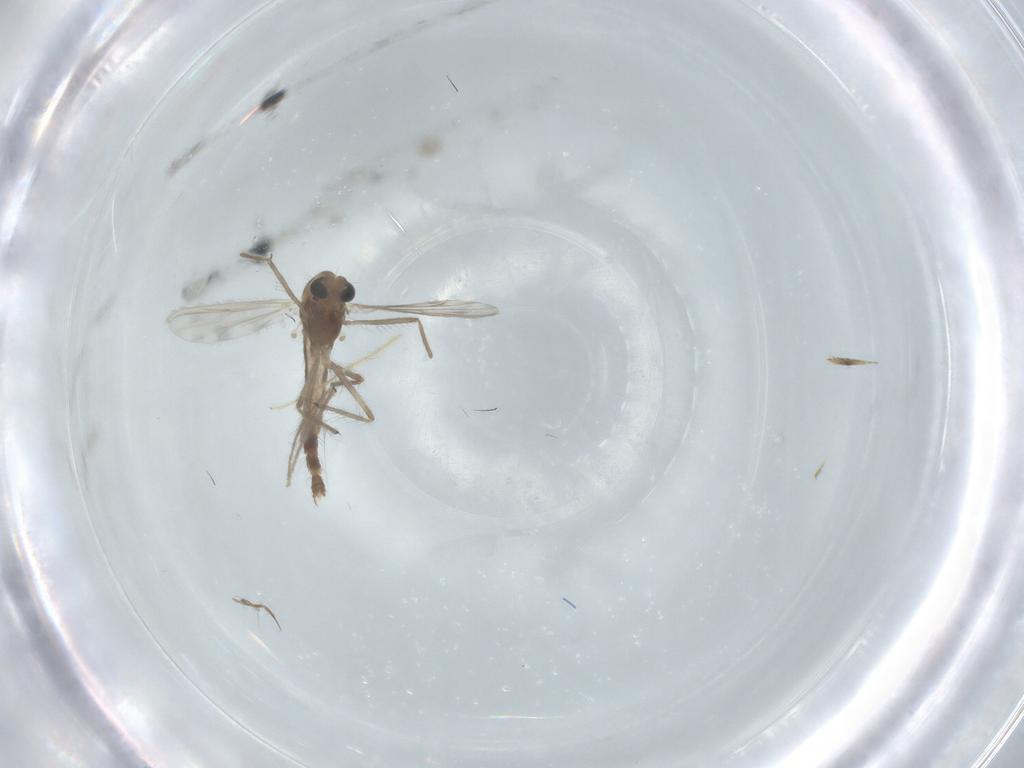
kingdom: Animalia
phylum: Arthropoda
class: Insecta
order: Diptera
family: Chironomidae
